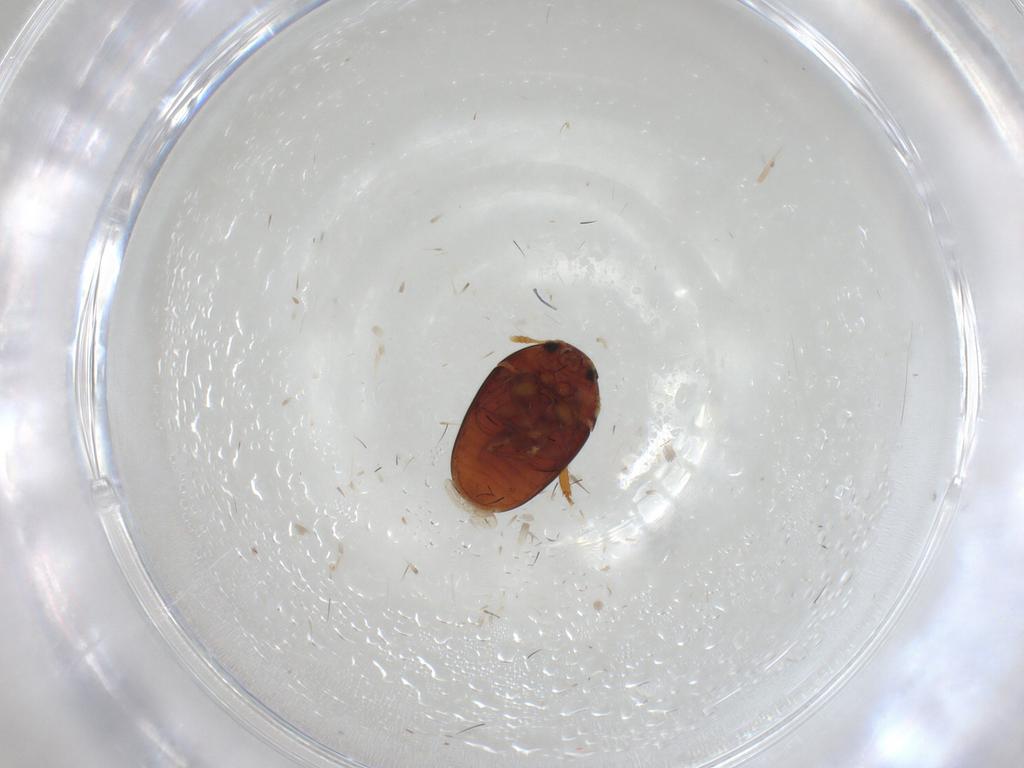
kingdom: Animalia
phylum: Arthropoda
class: Insecta
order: Coleoptera
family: Phalacridae
